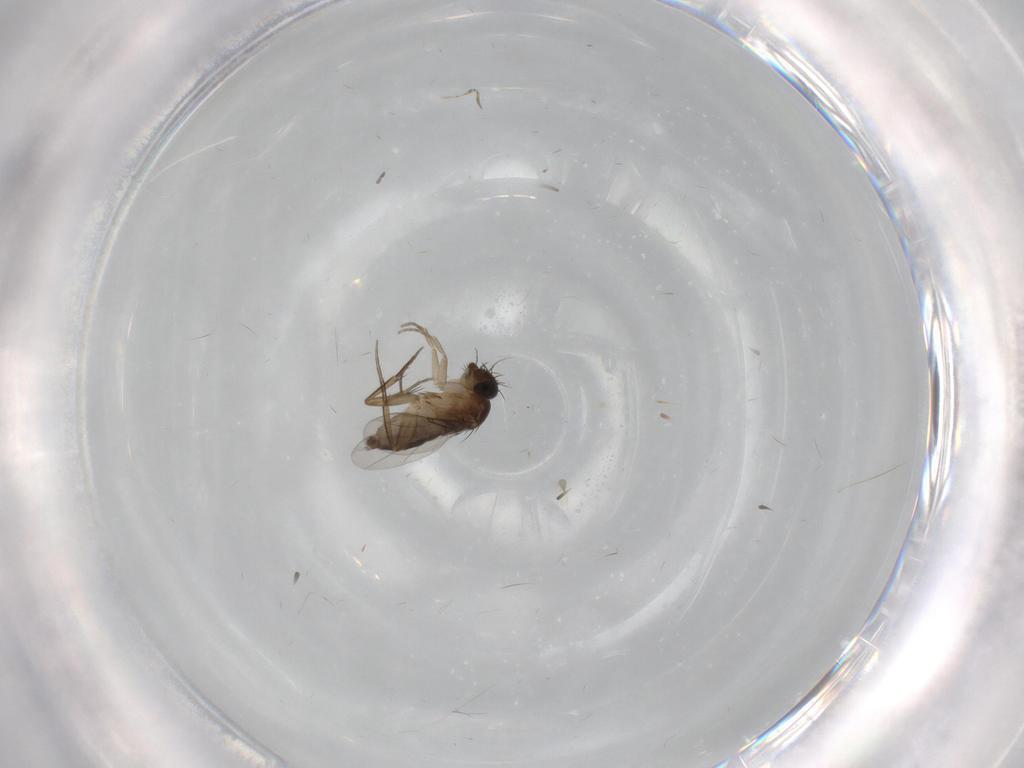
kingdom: Animalia
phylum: Arthropoda
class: Insecta
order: Diptera
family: Phoridae
